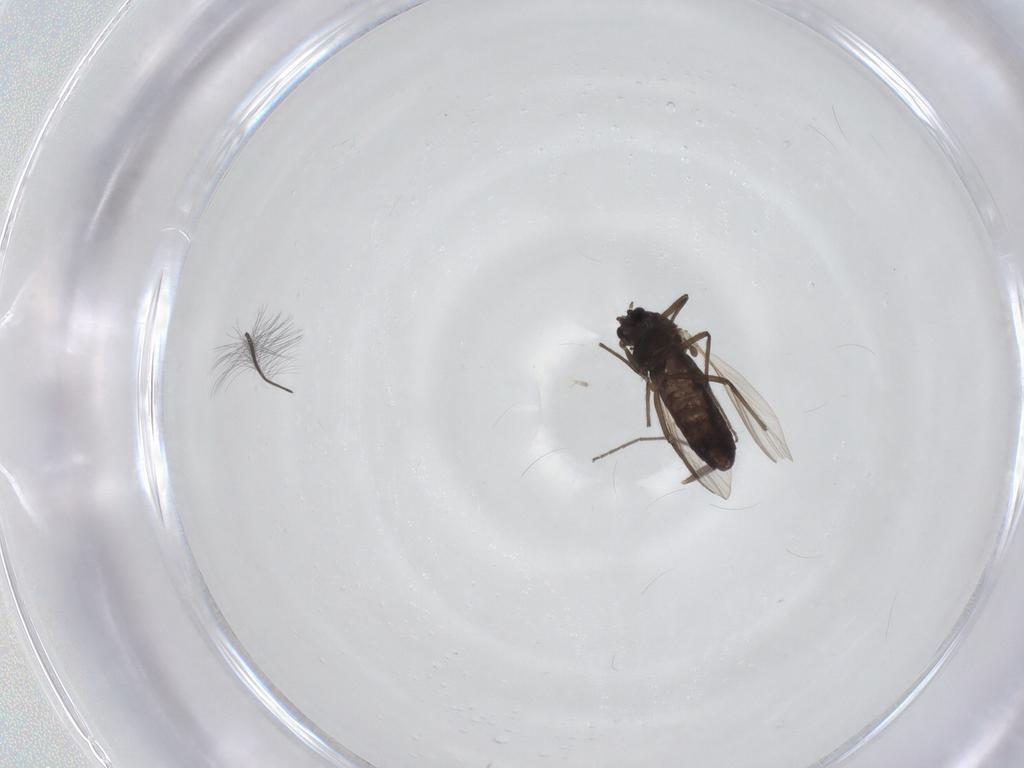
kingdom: Animalia
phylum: Arthropoda
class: Insecta
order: Diptera
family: Chironomidae
